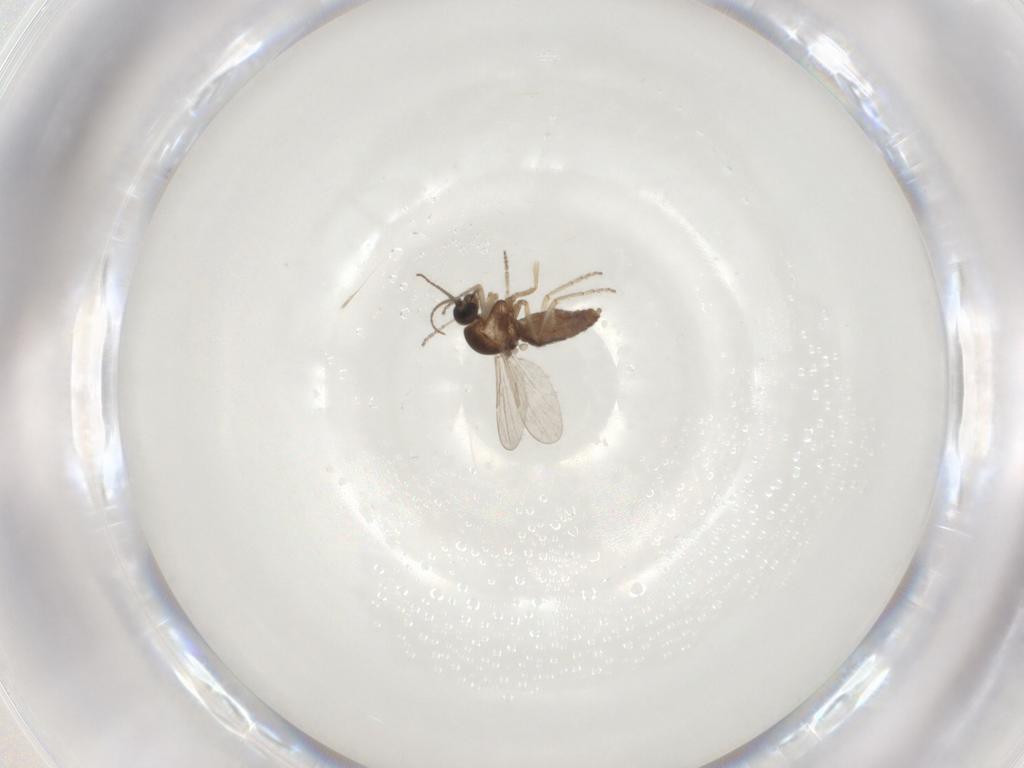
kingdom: Animalia
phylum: Arthropoda
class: Insecta
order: Diptera
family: Ceratopogonidae
